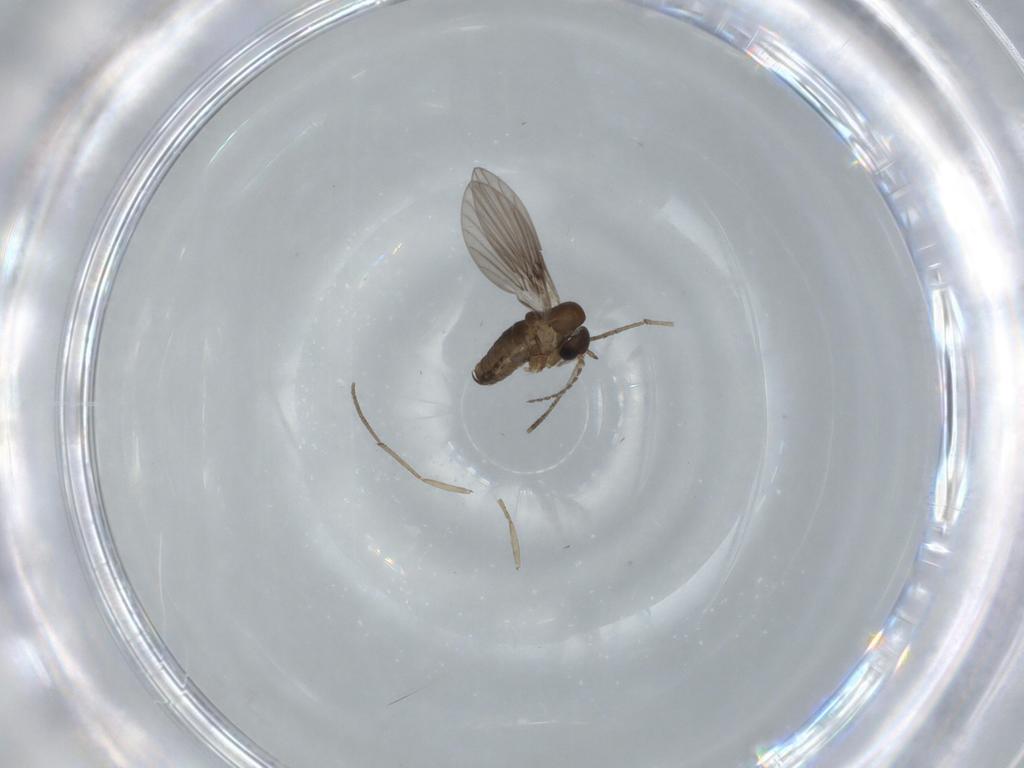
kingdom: Animalia
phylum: Arthropoda
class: Insecta
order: Diptera
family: Psychodidae
